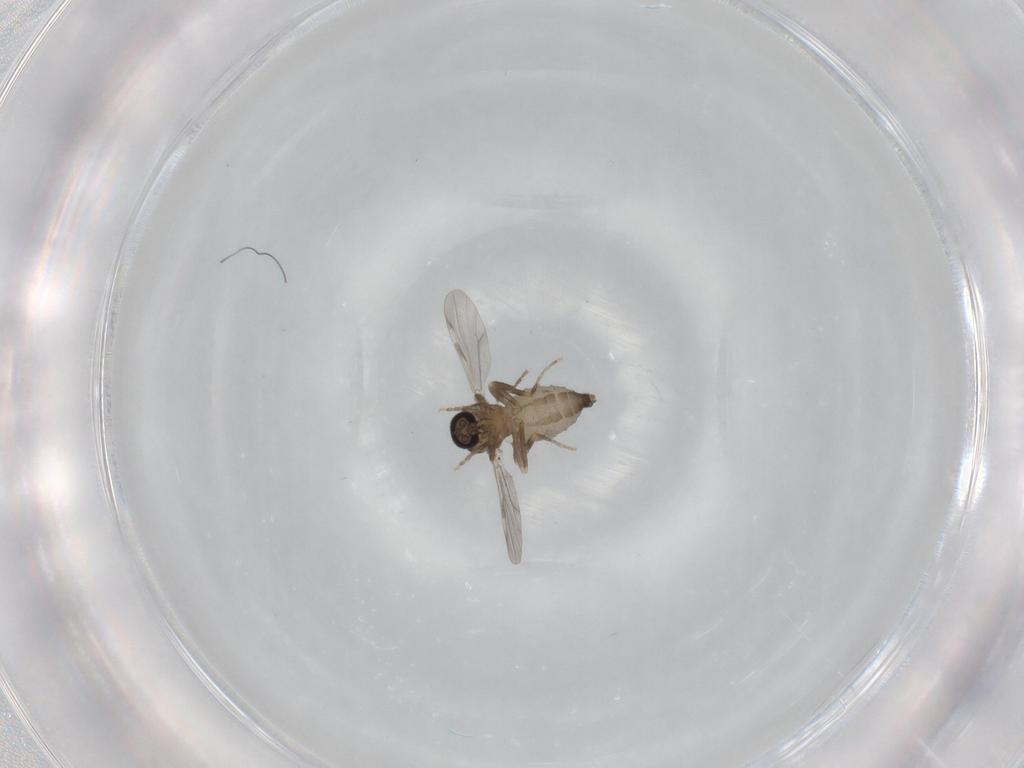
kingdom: Animalia
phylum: Arthropoda
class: Insecta
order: Diptera
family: Ceratopogonidae
